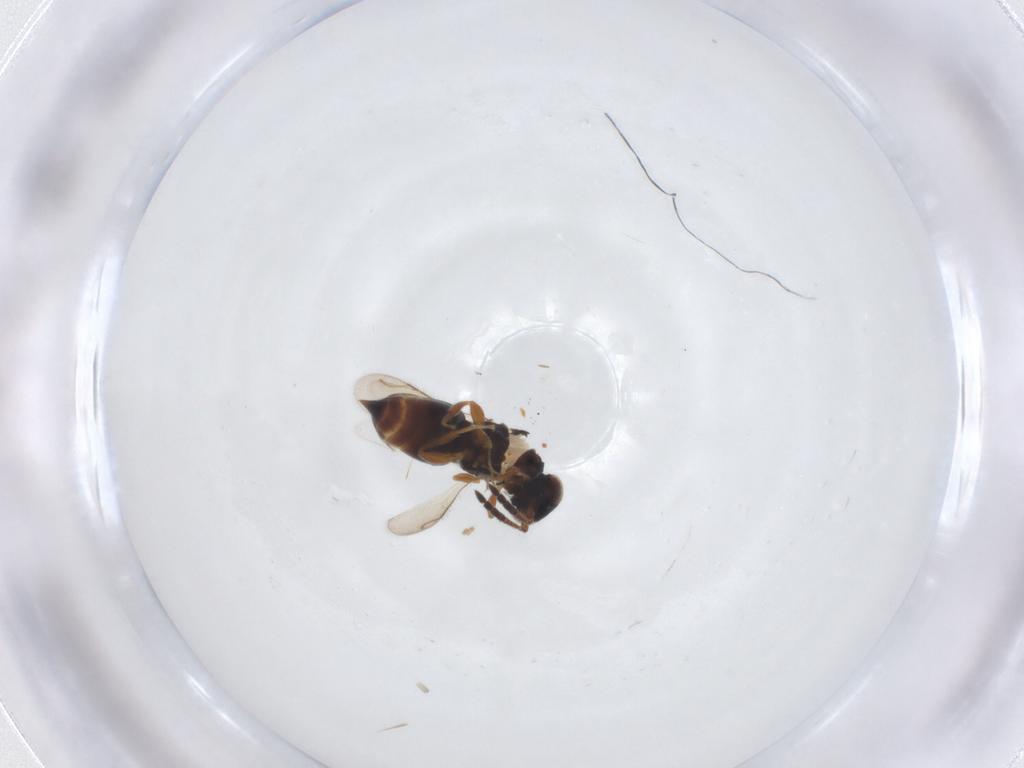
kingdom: Animalia
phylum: Arthropoda
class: Insecta
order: Hymenoptera
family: Ceraphronidae
